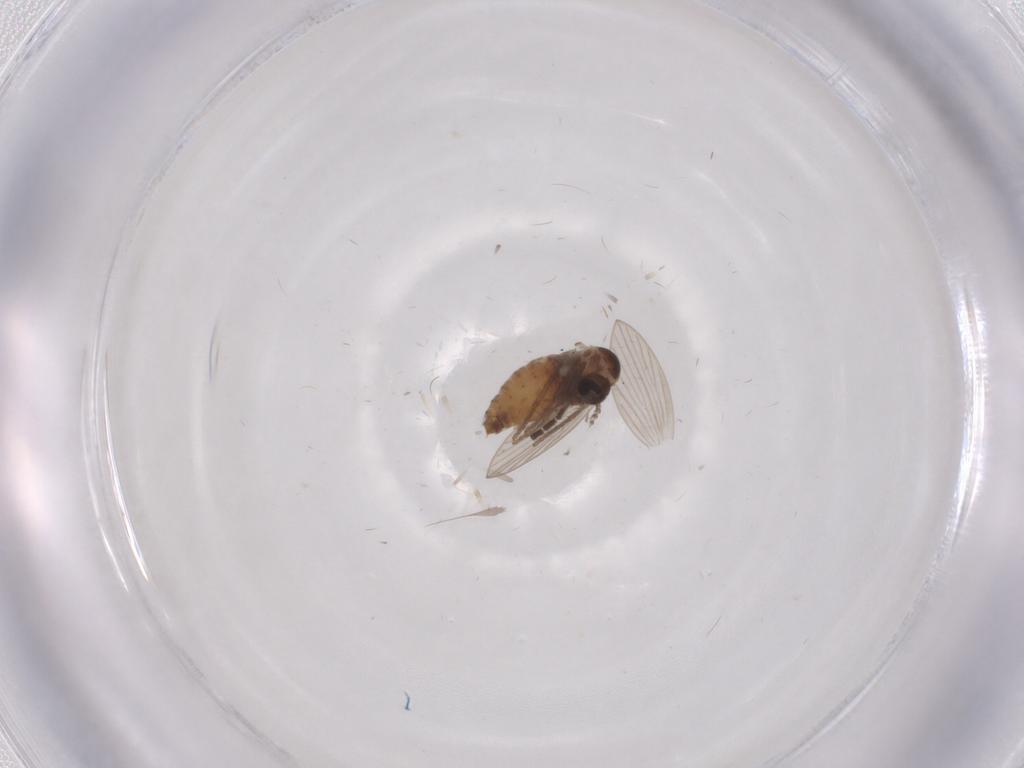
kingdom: Animalia
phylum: Arthropoda
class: Insecta
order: Diptera
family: Psychodidae
